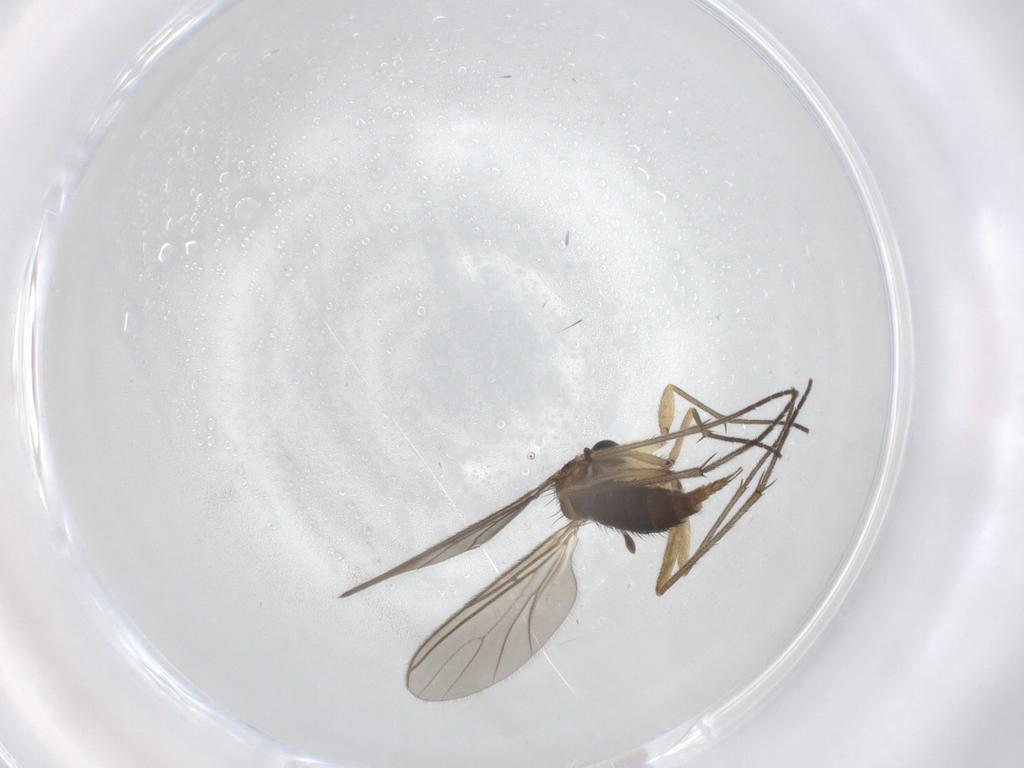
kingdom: Animalia
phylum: Arthropoda
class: Insecta
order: Diptera
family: Sciaridae
